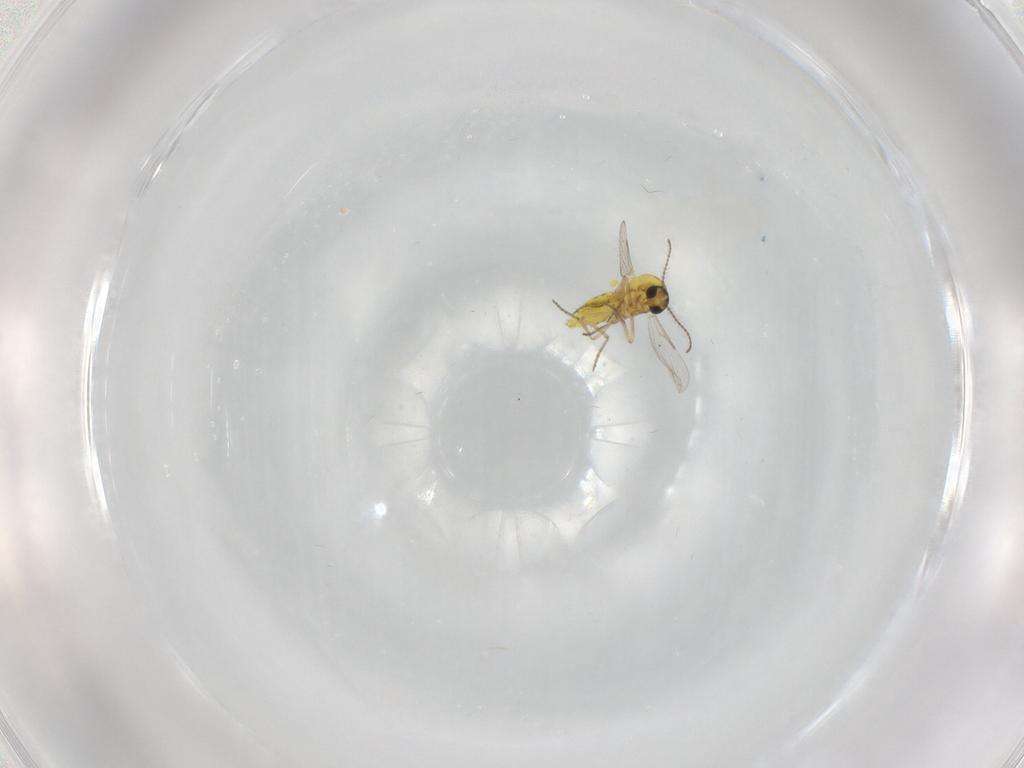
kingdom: Animalia
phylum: Arthropoda
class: Insecta
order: Diptera
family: Ceratopogonidae
